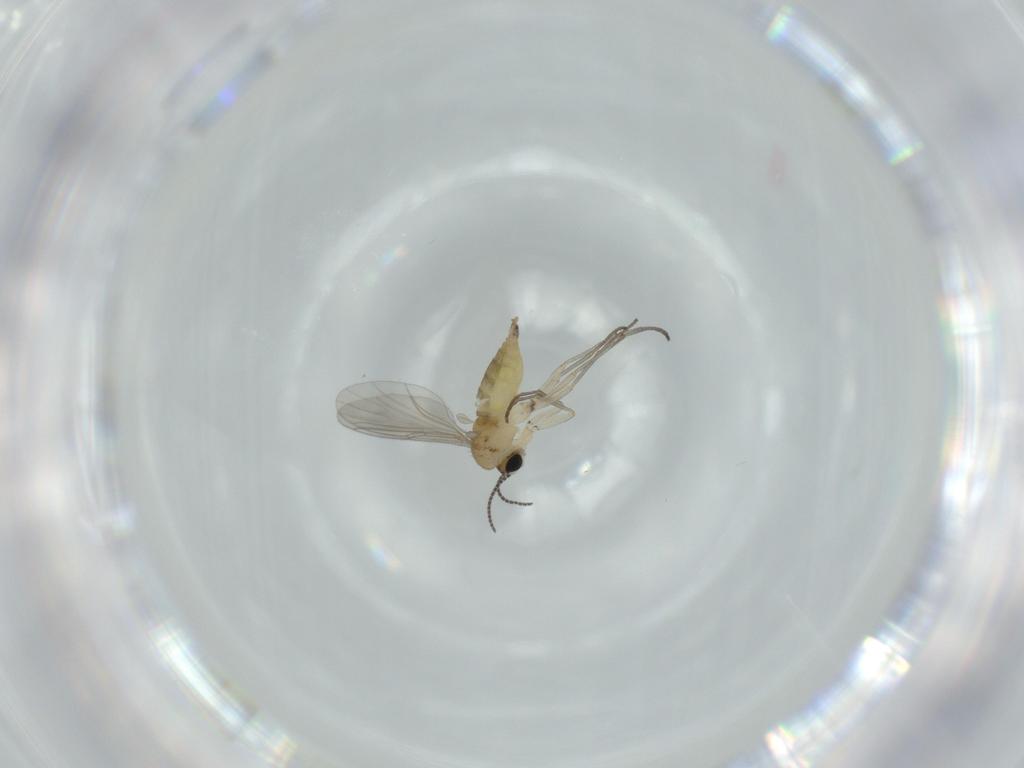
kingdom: Animalia
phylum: Arthropoda
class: Insecta
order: Diptera
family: Sciaridae
